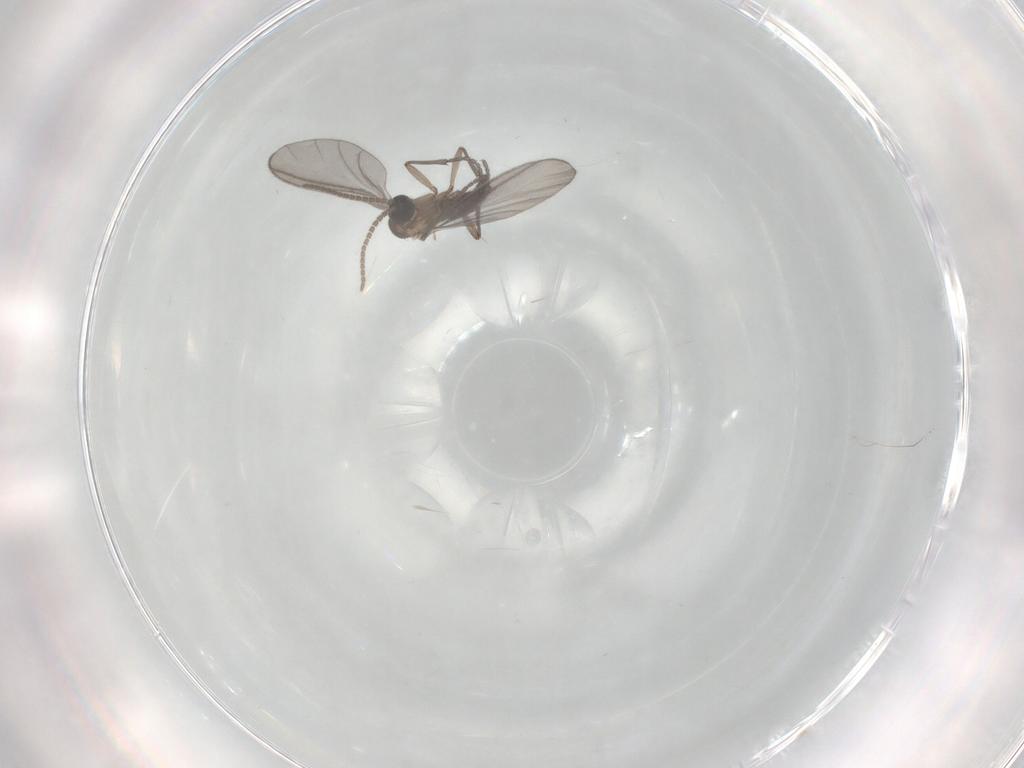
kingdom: Animalia
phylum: Arthropoda
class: Insecta
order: Diptera
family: Sciaridae
